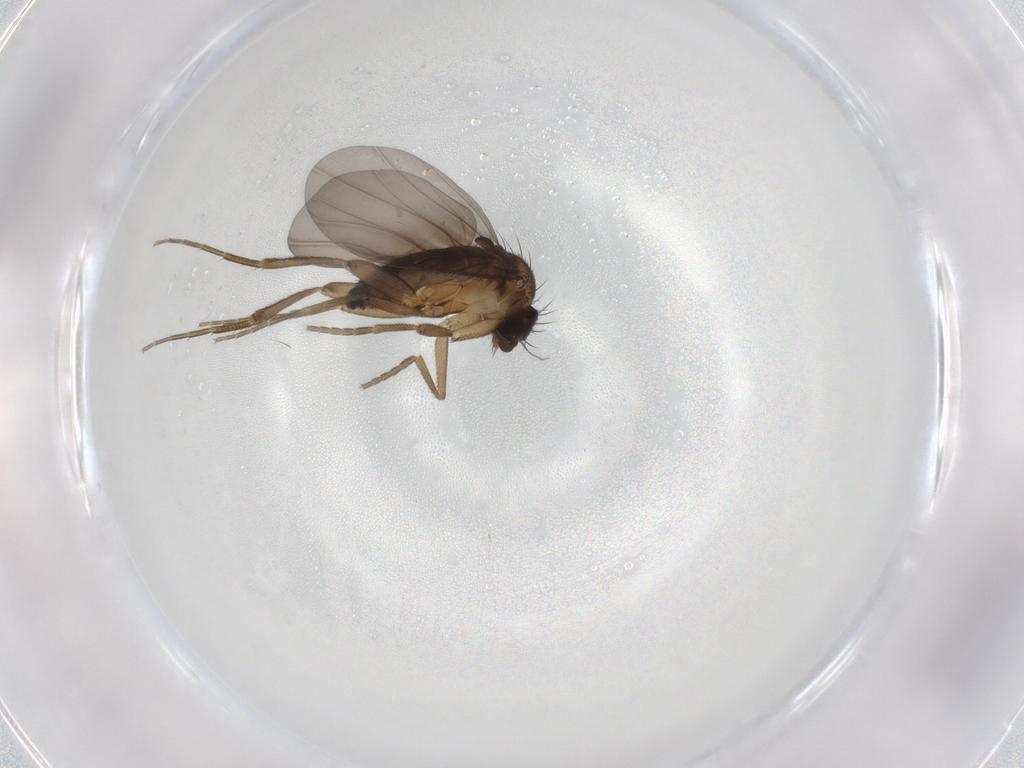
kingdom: Animalia
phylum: Arthropoda
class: Insecta
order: Diptera
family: Phoridae
